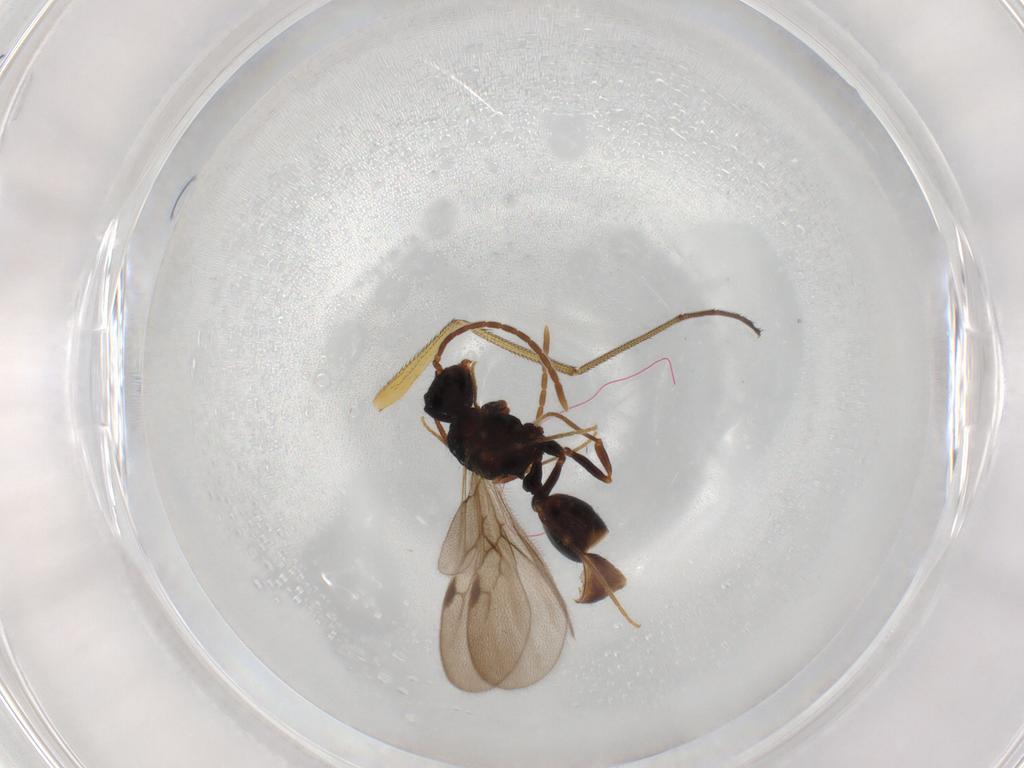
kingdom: Animalia
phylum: Arthropoda
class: Insecta
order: Hymenoptera
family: Formicidae
